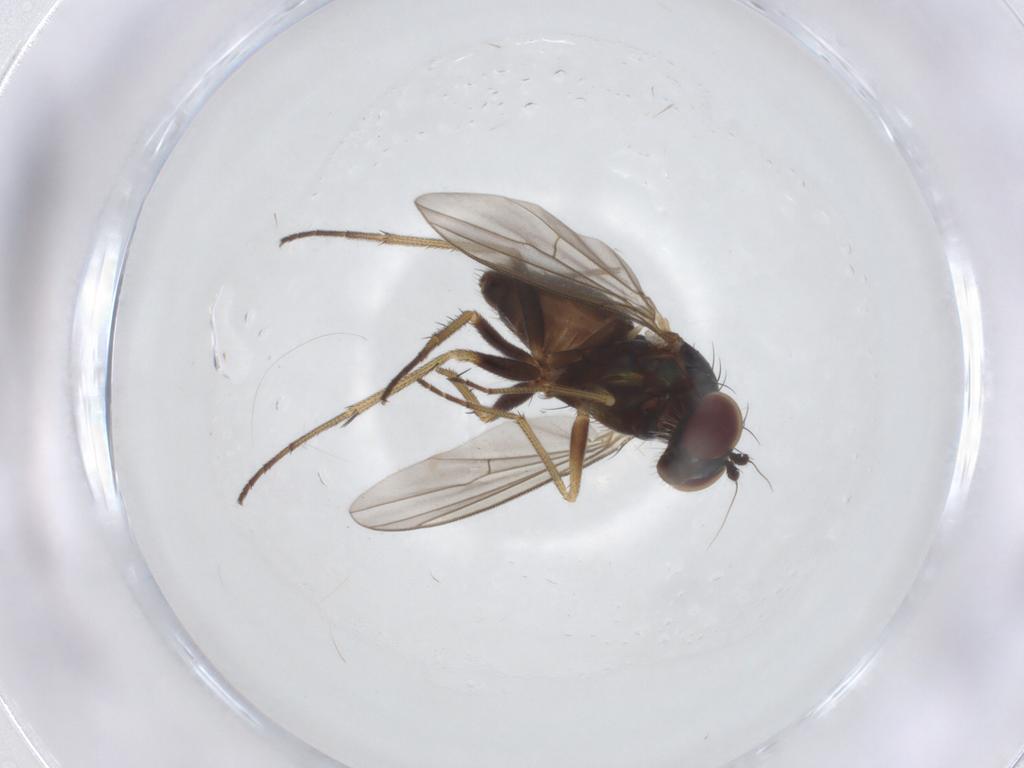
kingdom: Animalia
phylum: Arthropoda
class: Insecta
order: Diptera
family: Dolichopodidae
